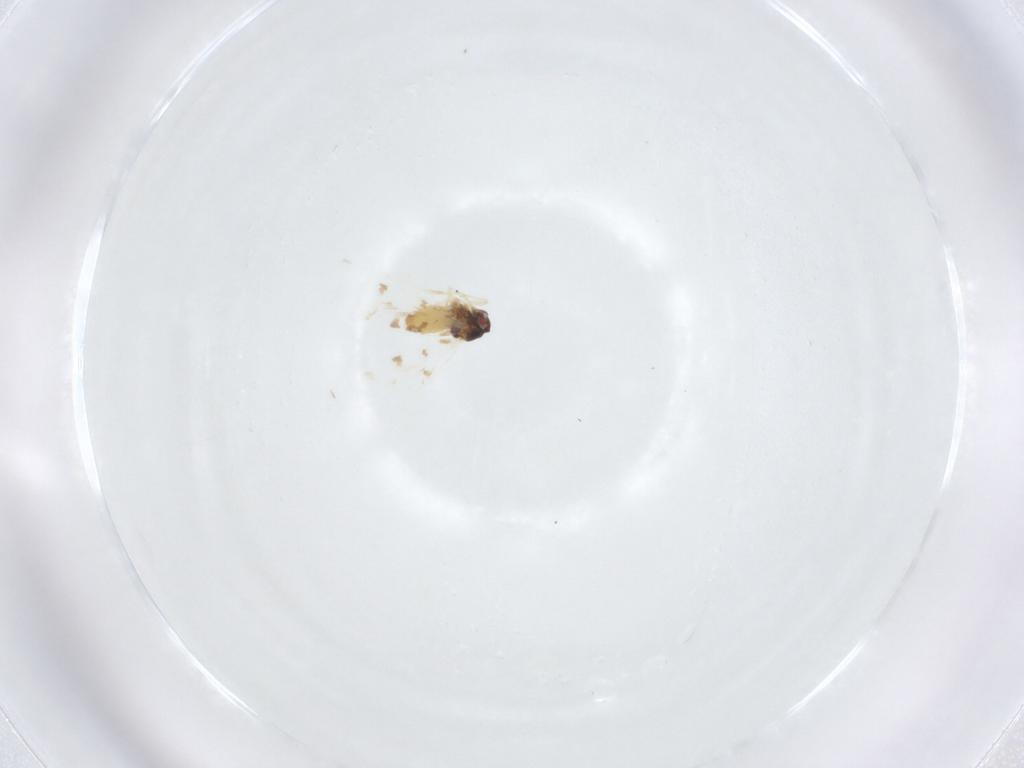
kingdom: Animalia
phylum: Arthropoda
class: Insecta
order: Hemiptera
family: Aleyrodidae
